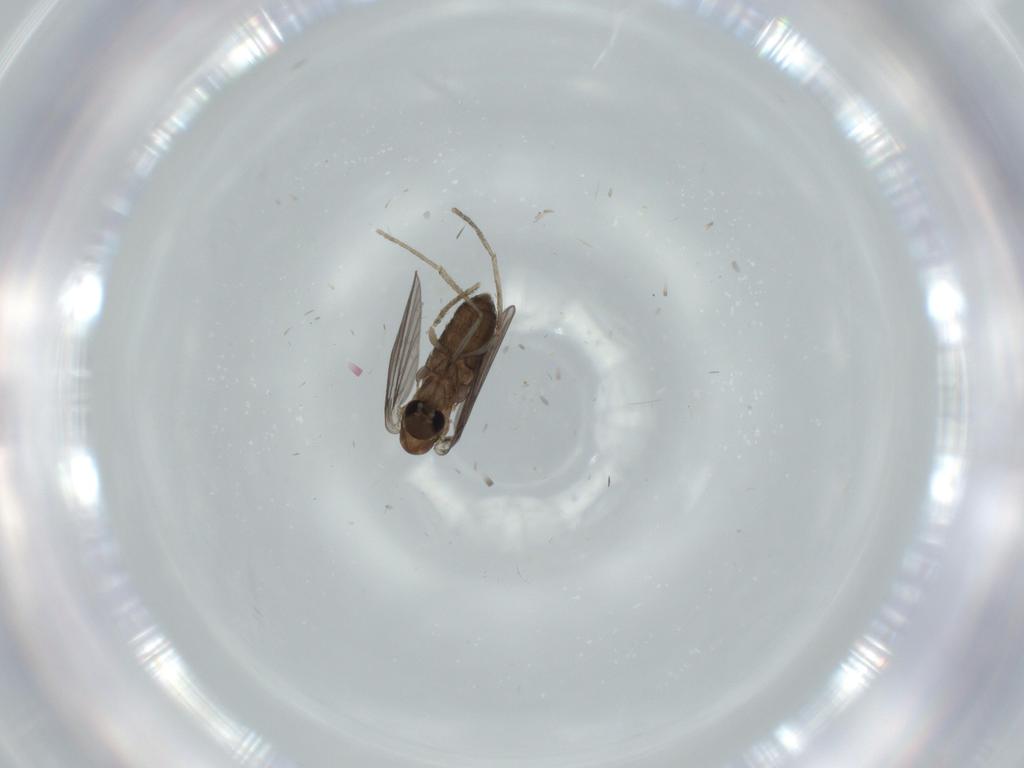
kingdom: Animalia
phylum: Arthropoda
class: Insecta
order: Diptera
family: Psychodidae
